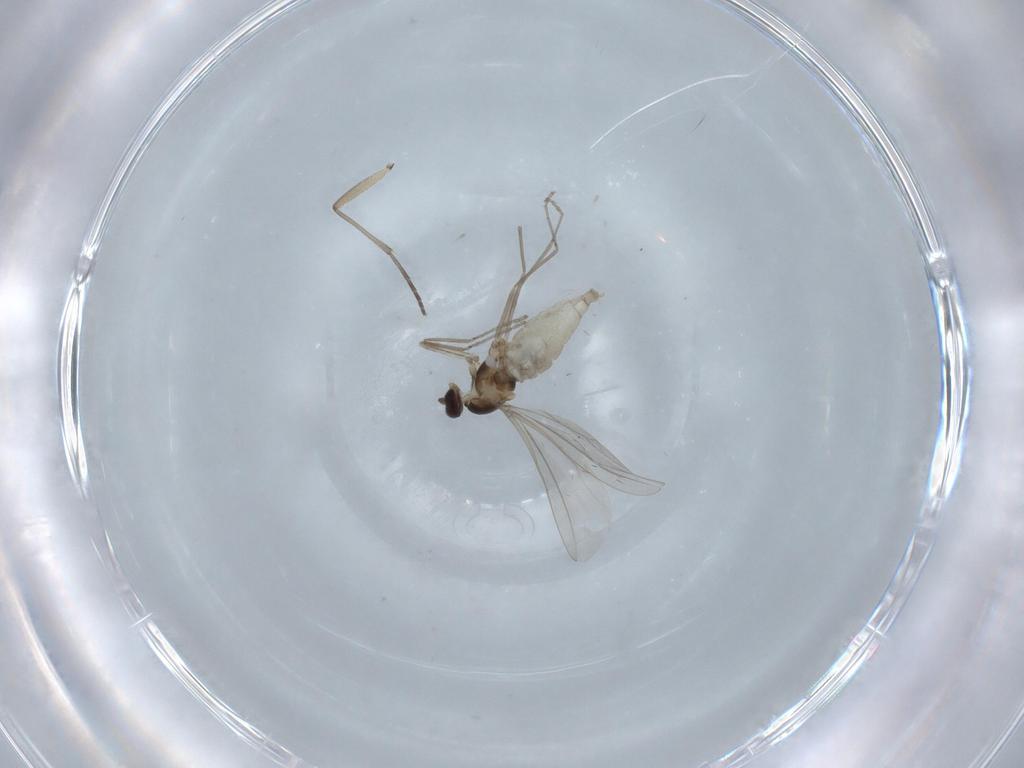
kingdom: Animalia
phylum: Arthropoda
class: Insecta
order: Diptera
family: Cecidomyiidae
